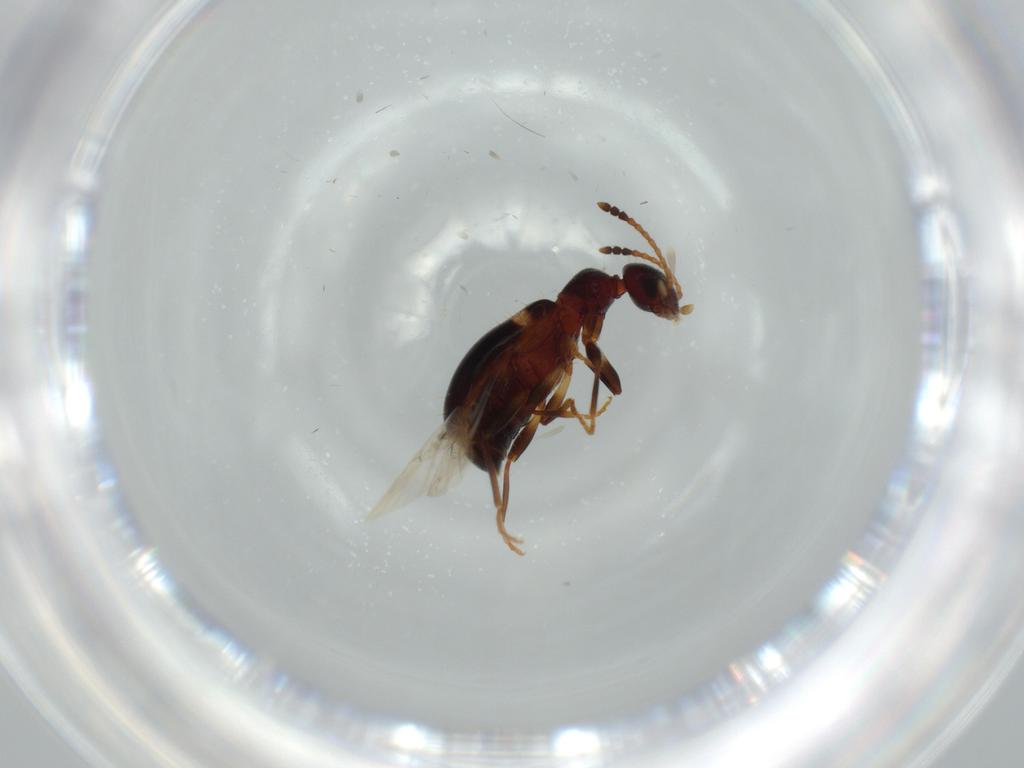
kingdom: Animalia
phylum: Arthropoda
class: Insecta
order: Coleoptera
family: Anthicidae
